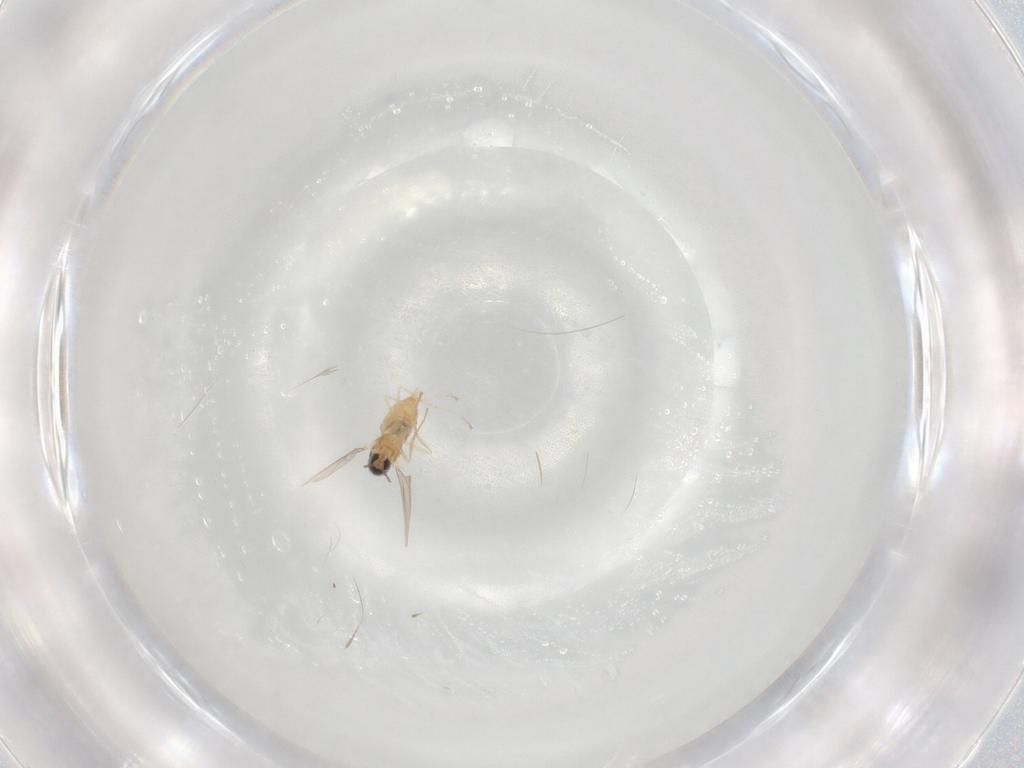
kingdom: Animalia
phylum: Arthropoda
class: Insecta
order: Diptera
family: Cecidomyiidae
